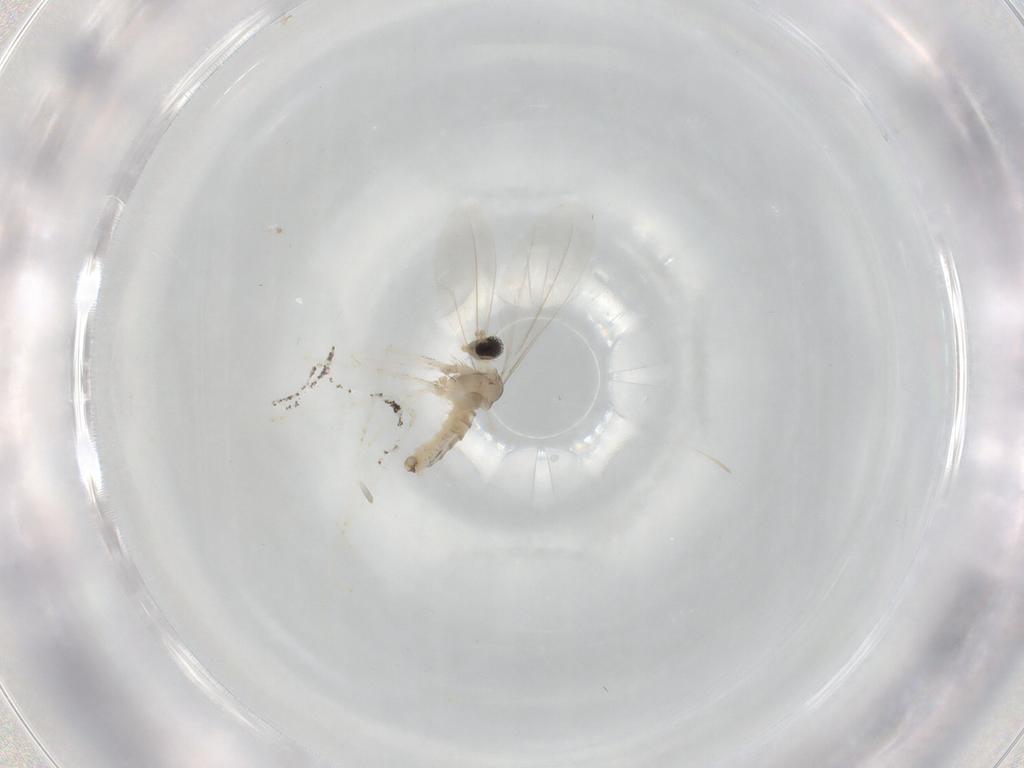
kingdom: Animalia
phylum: Arthropoda
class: Insecta
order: Diptera
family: Cecidomyiidae
